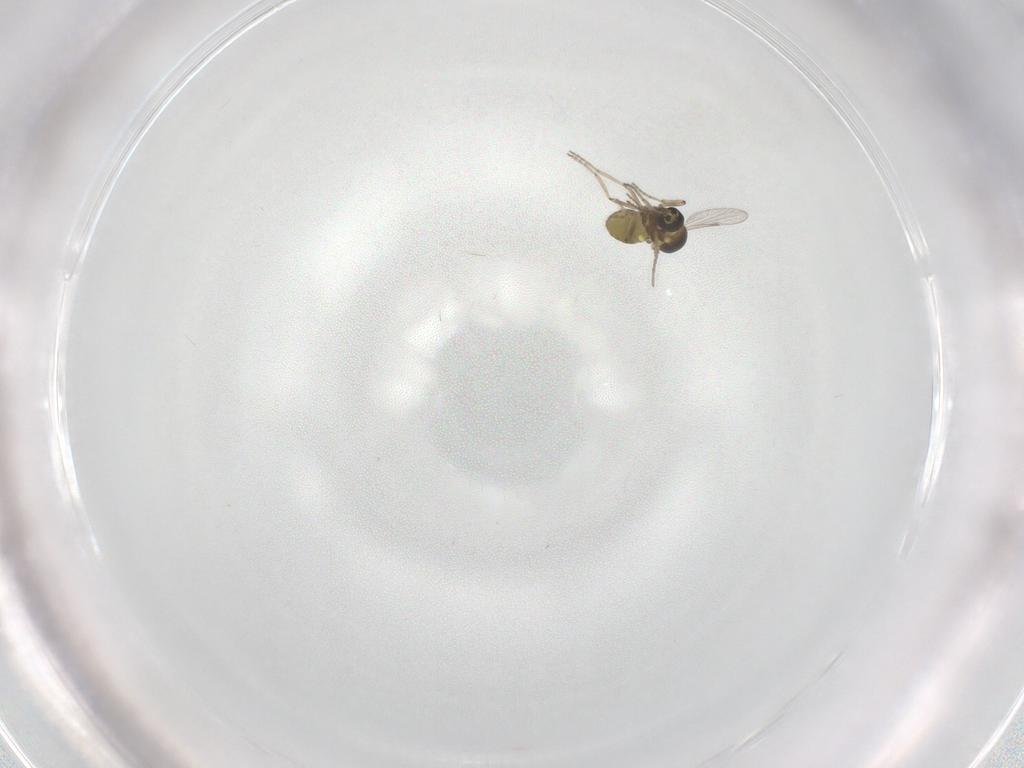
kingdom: Animalia
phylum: Arthropoda
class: Insecta
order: Diptera
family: Ceratopogonidae
